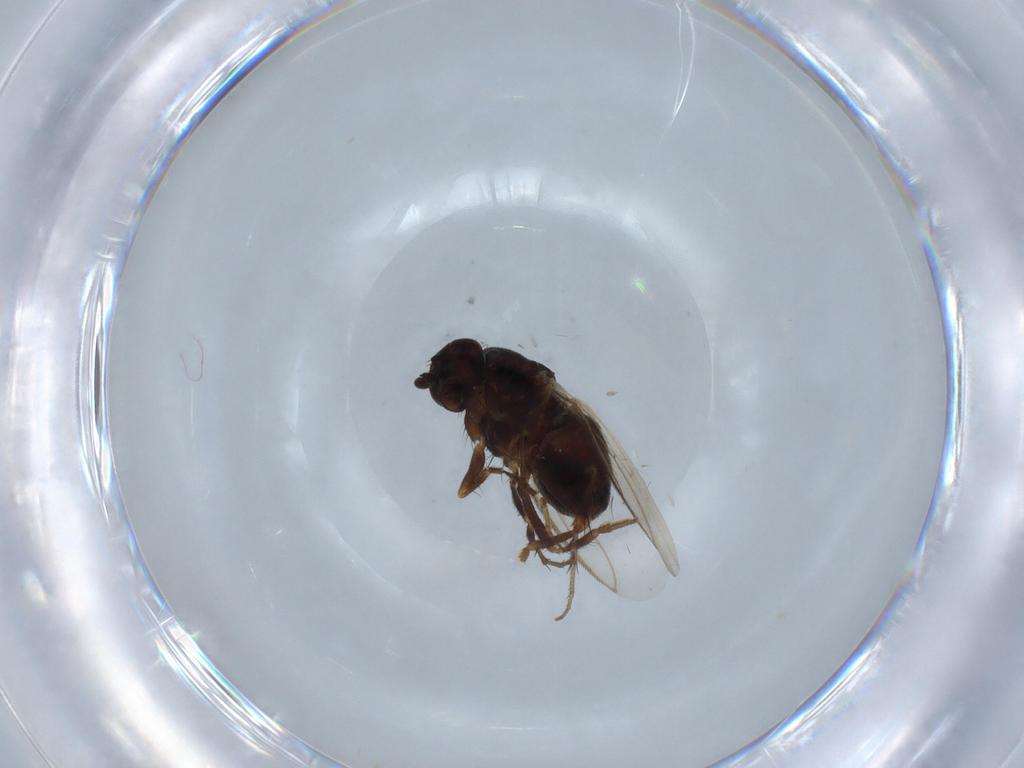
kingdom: Animalia
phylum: Arthropoda
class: Insecta
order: Diptera
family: Sphaeroceridae
